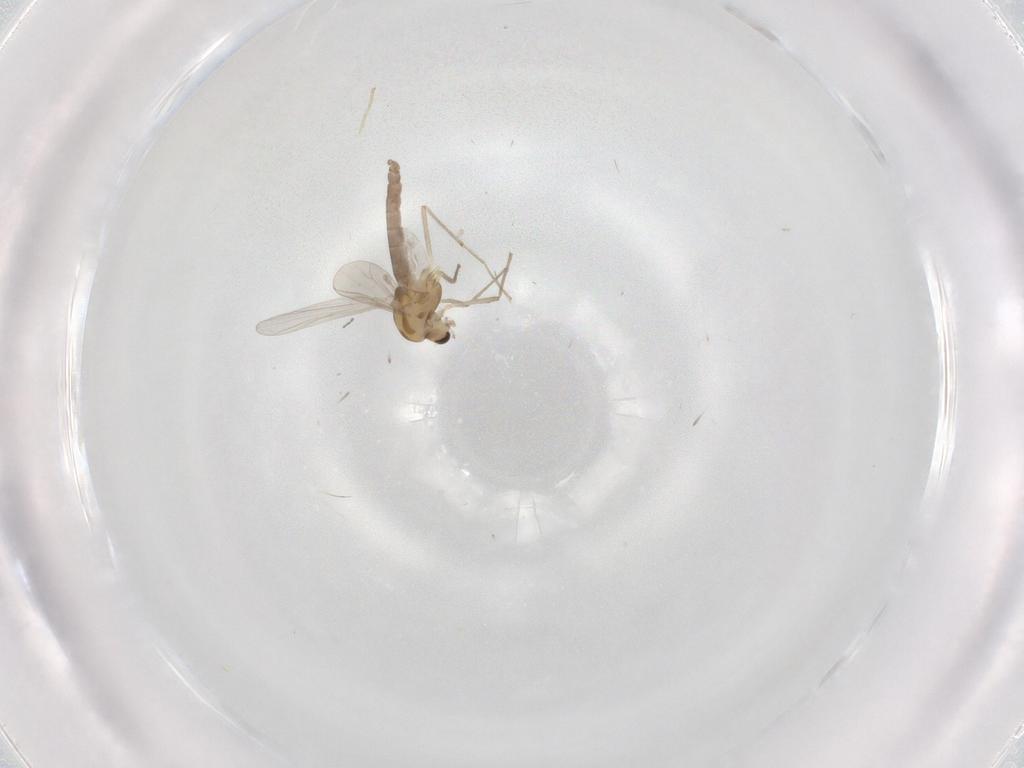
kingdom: Animalia
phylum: Arthropoda
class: Insecta
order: Diptera
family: Chironomidae
